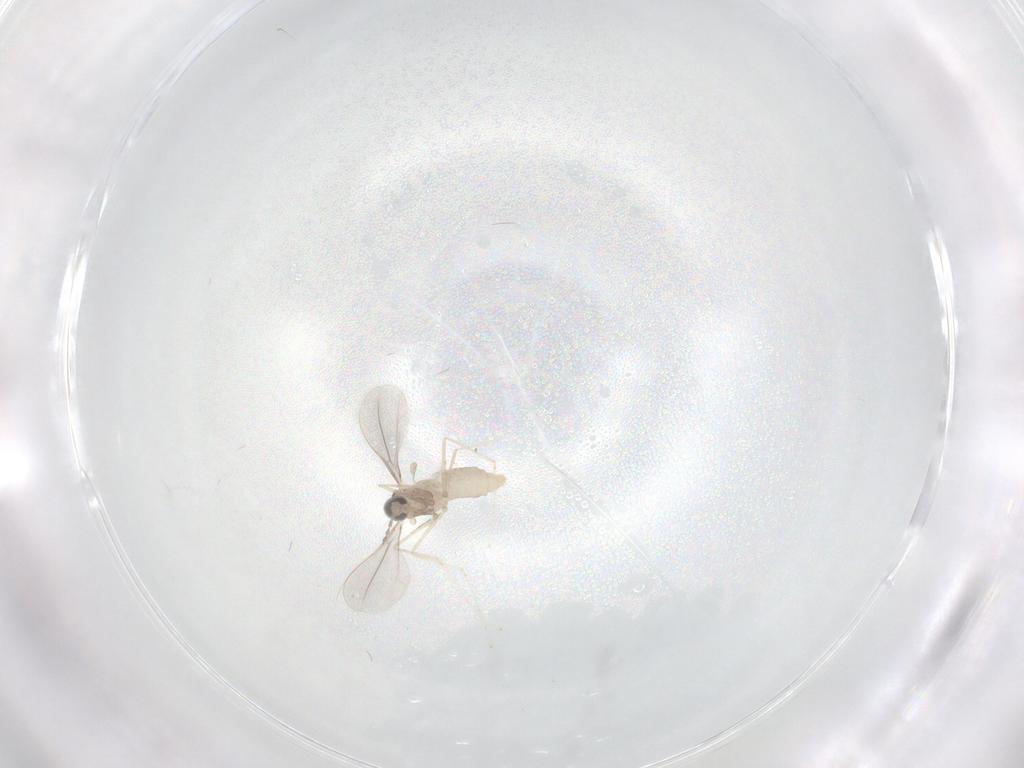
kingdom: Animalia
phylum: Arthropoda
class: Insecta
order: Diptera
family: Cecidomyiidae
